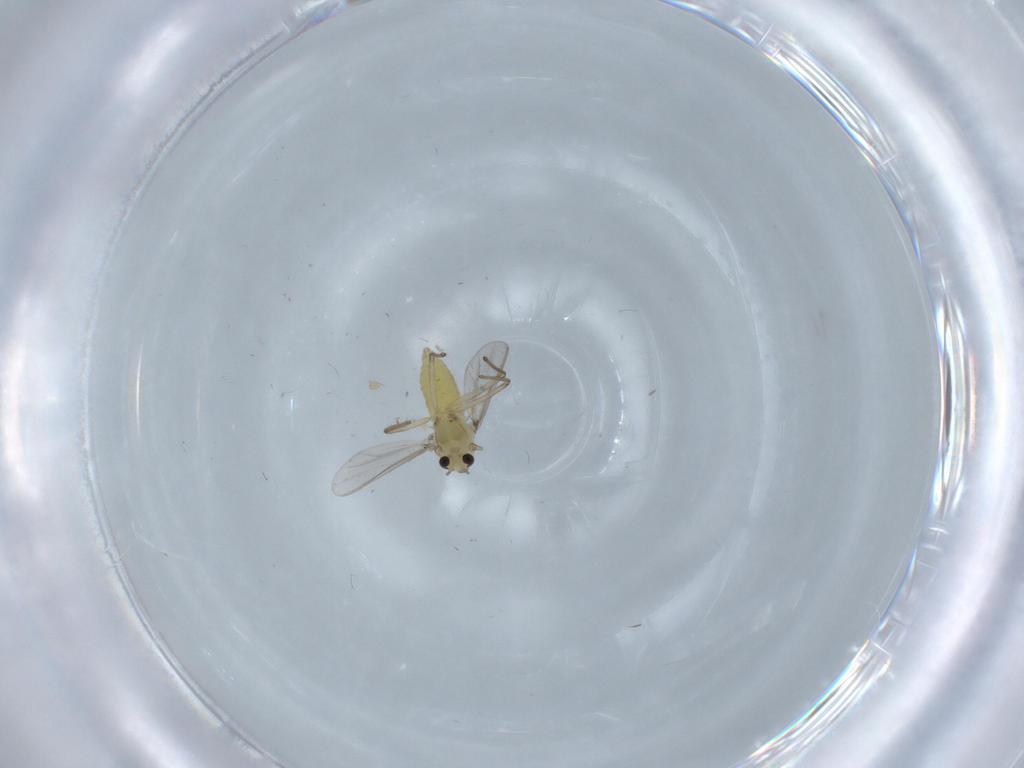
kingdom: Animalia
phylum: Arthropoda
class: Insecta
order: Diptera
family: Chironomidae
